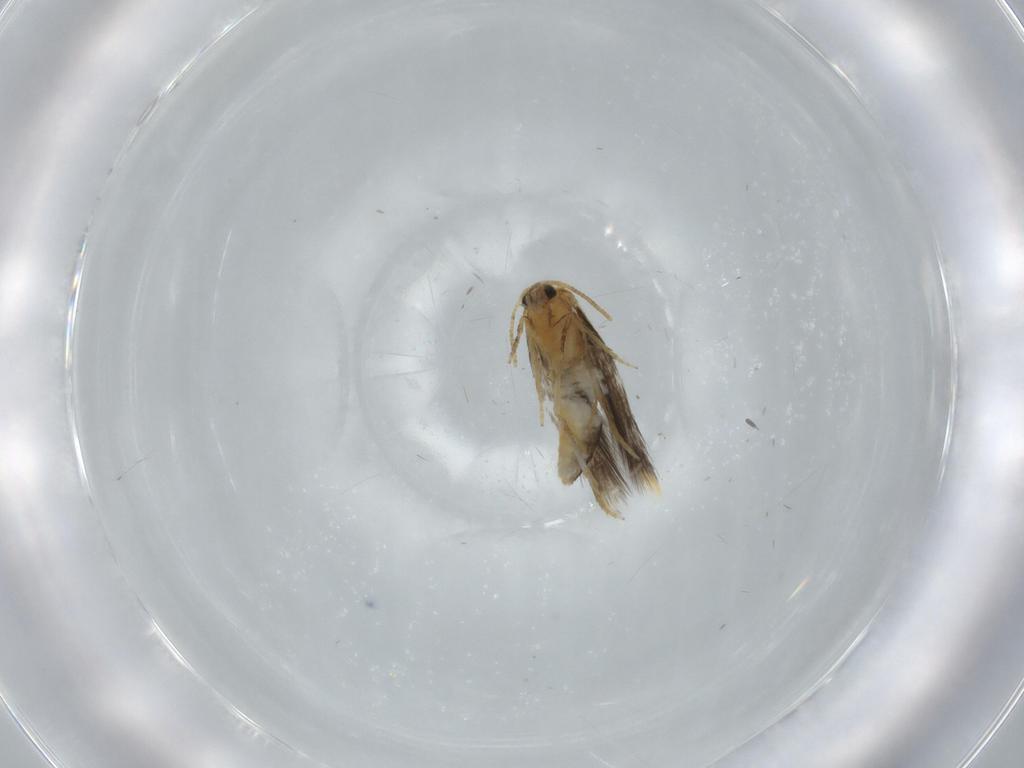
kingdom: Animalia
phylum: Arthropoda
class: Insecta
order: Lepidoptera
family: Copromorphidae
